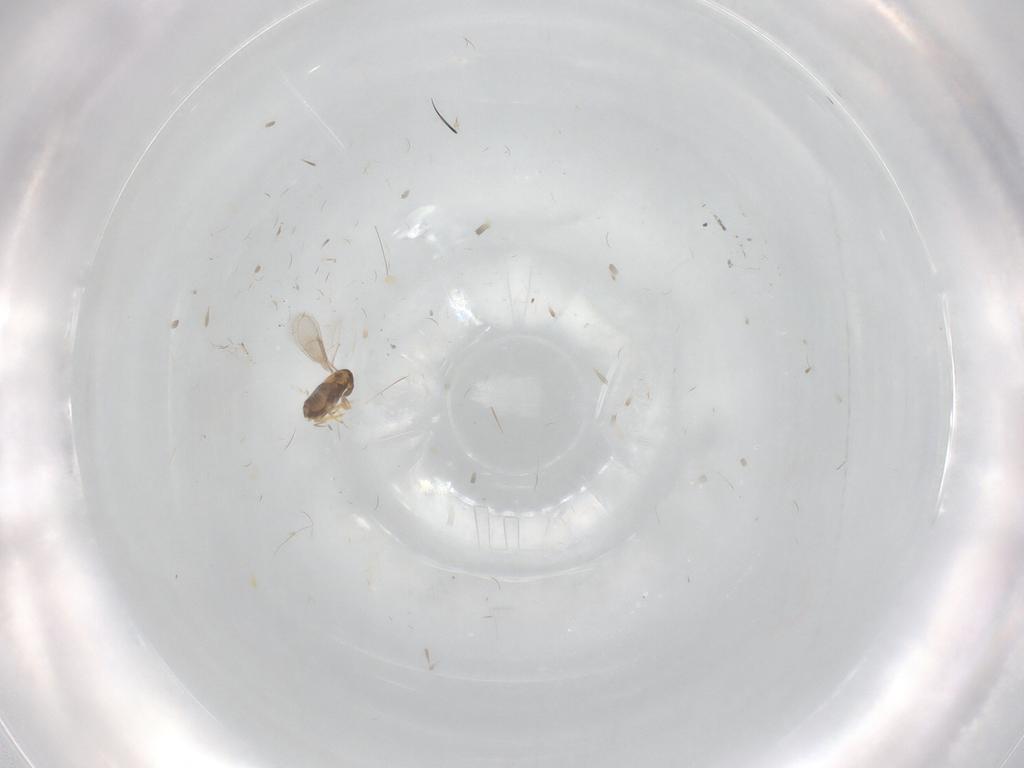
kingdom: Animalia
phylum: Arthropoda
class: Insecta
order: Hymenoptera
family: Braconidae
